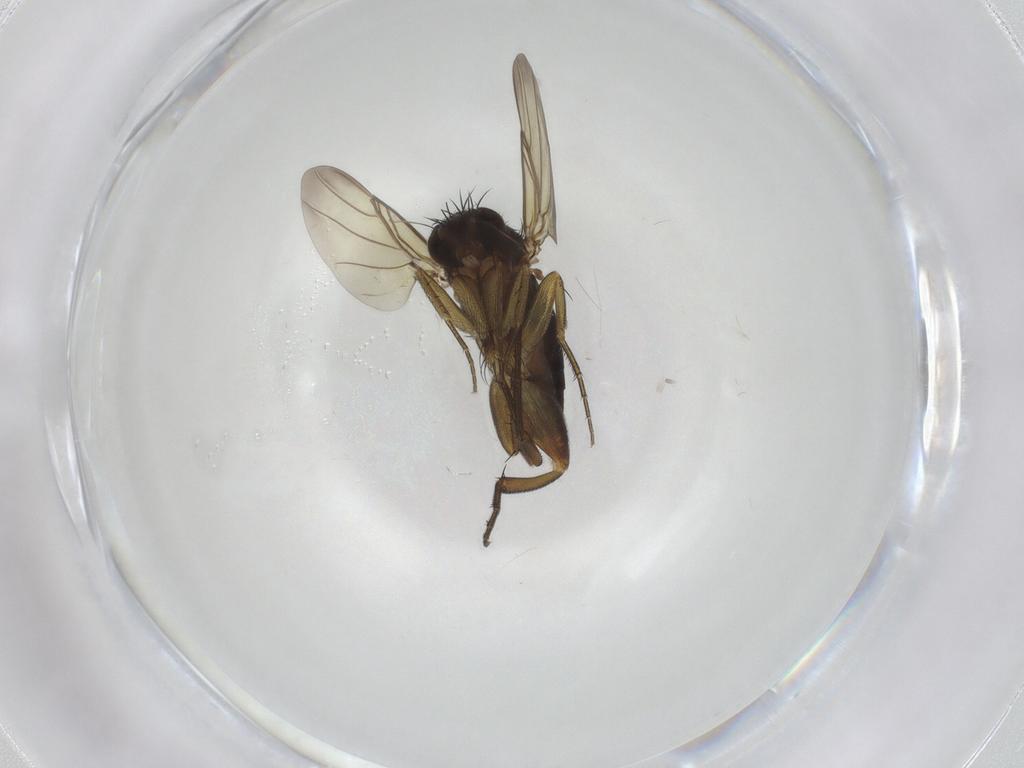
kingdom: Animalia
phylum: Arthropoda
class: Insecta
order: Diptera
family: Phoridae
